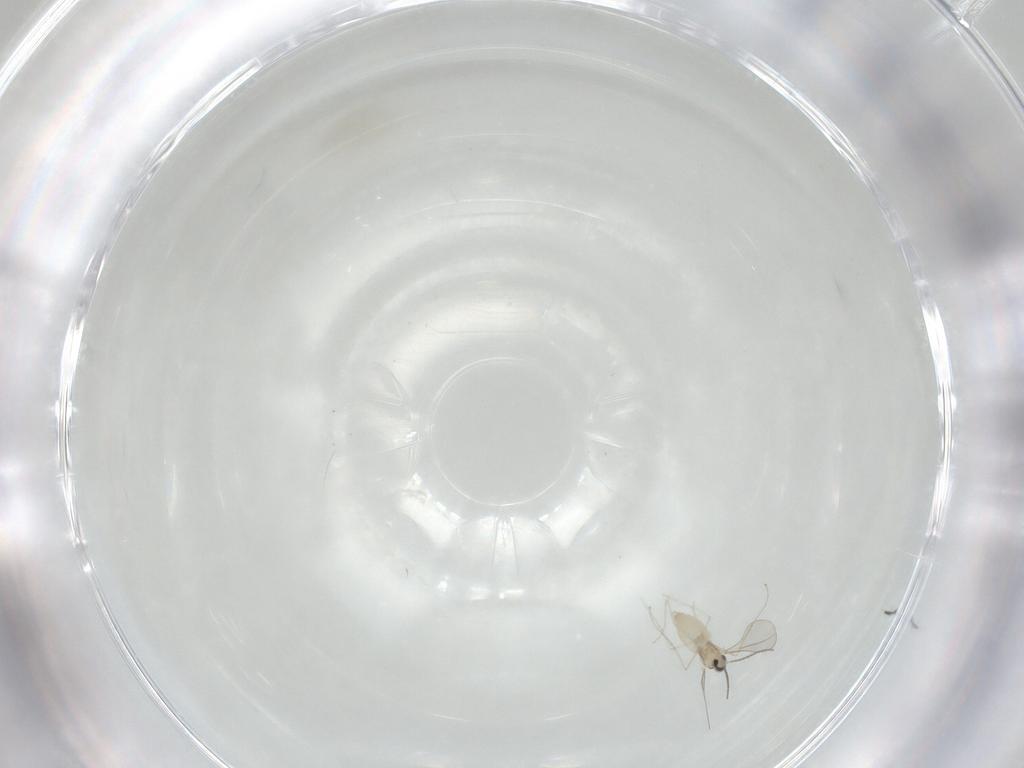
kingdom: Animalia
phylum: Arthropoda
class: Insecta
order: Diptera
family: Cecidomyiidae
